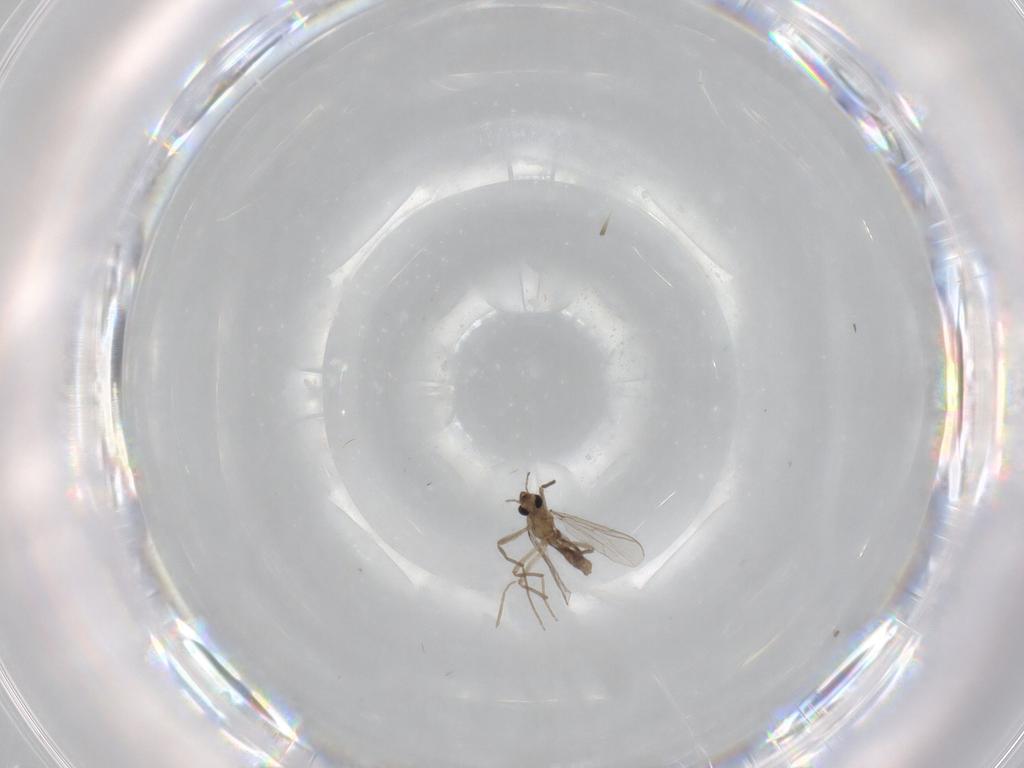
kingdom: Animalia
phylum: Arthropoda
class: Insecta
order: Diptera
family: Chironomidae
